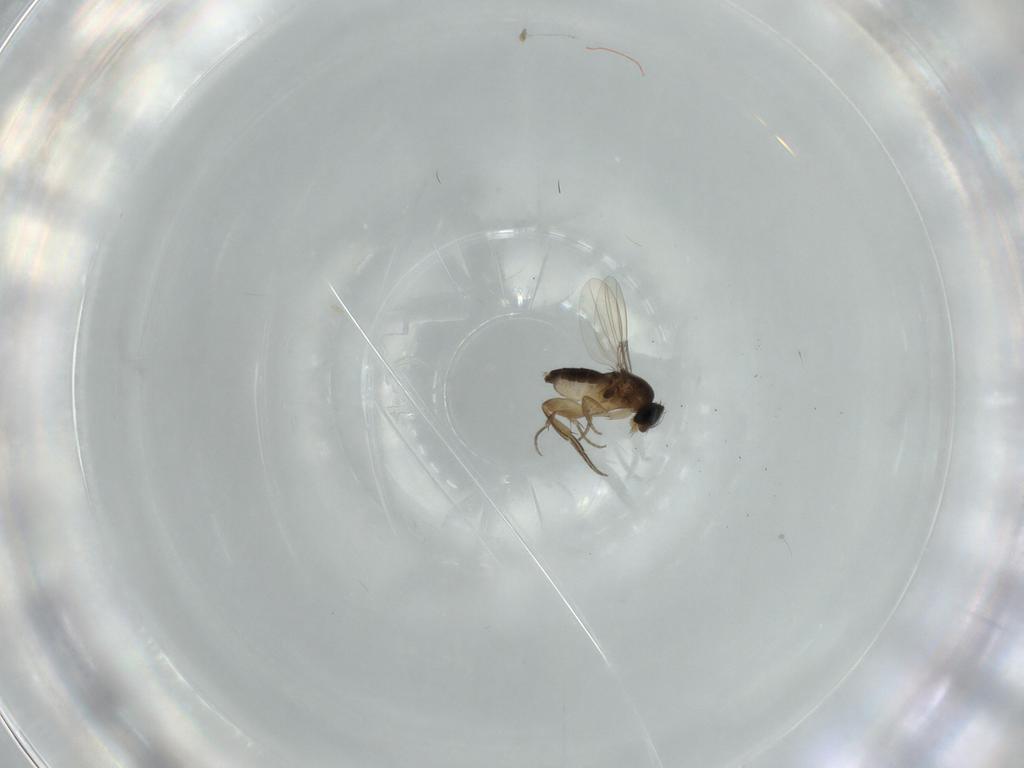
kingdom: Animalia
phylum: Arthropoda
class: Insecta
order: Diptera
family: Phoridae
